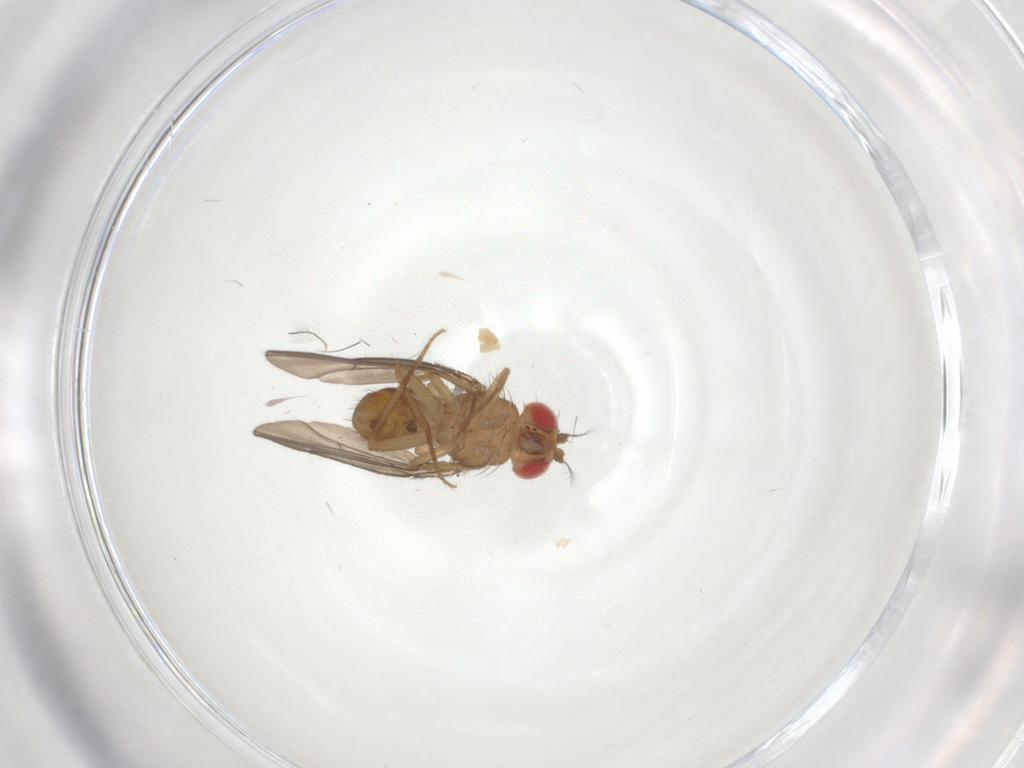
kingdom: Animalia
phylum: Arthropoda
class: Insecta
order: Diptera
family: Drosophilidae
